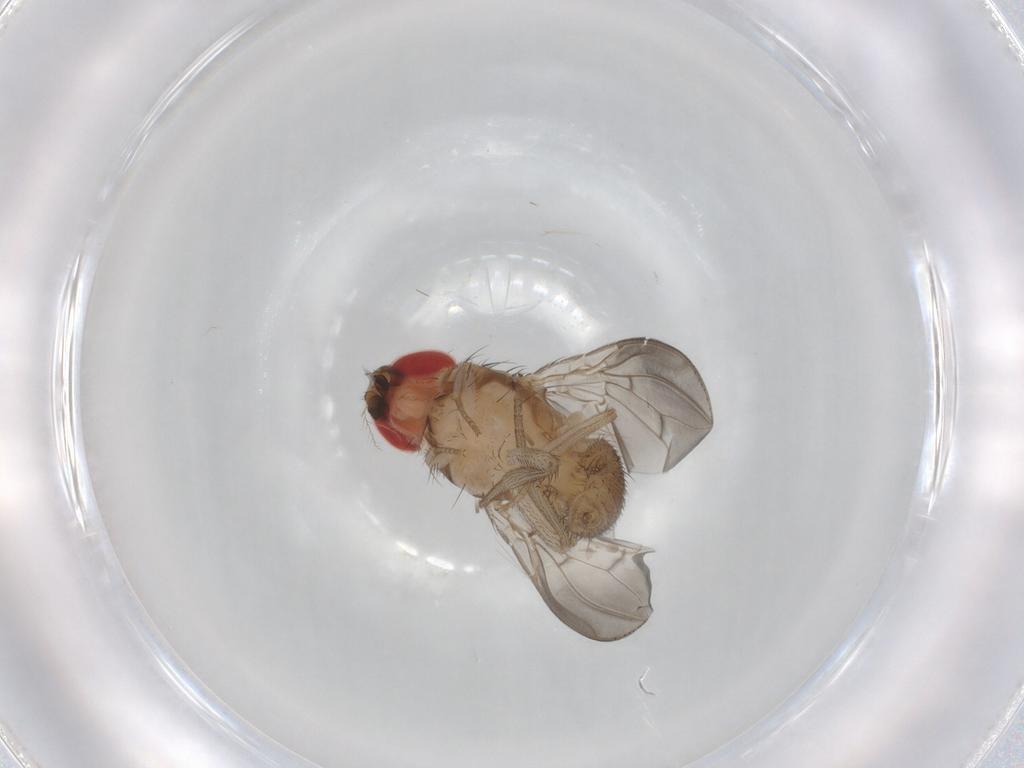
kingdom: Animalia
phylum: Arthropoda
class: Insecta
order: Diptera
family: Drosophilidae
